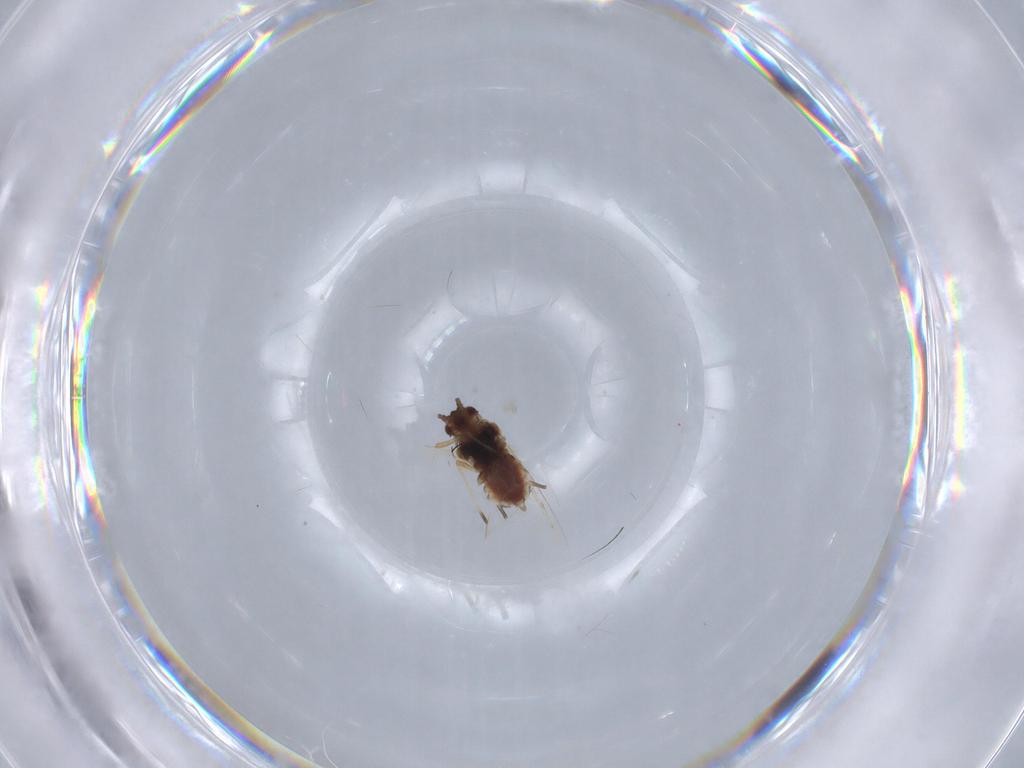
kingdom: Animalia
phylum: Arthropoda
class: Insecta
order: Hemiptera
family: Aphididae
